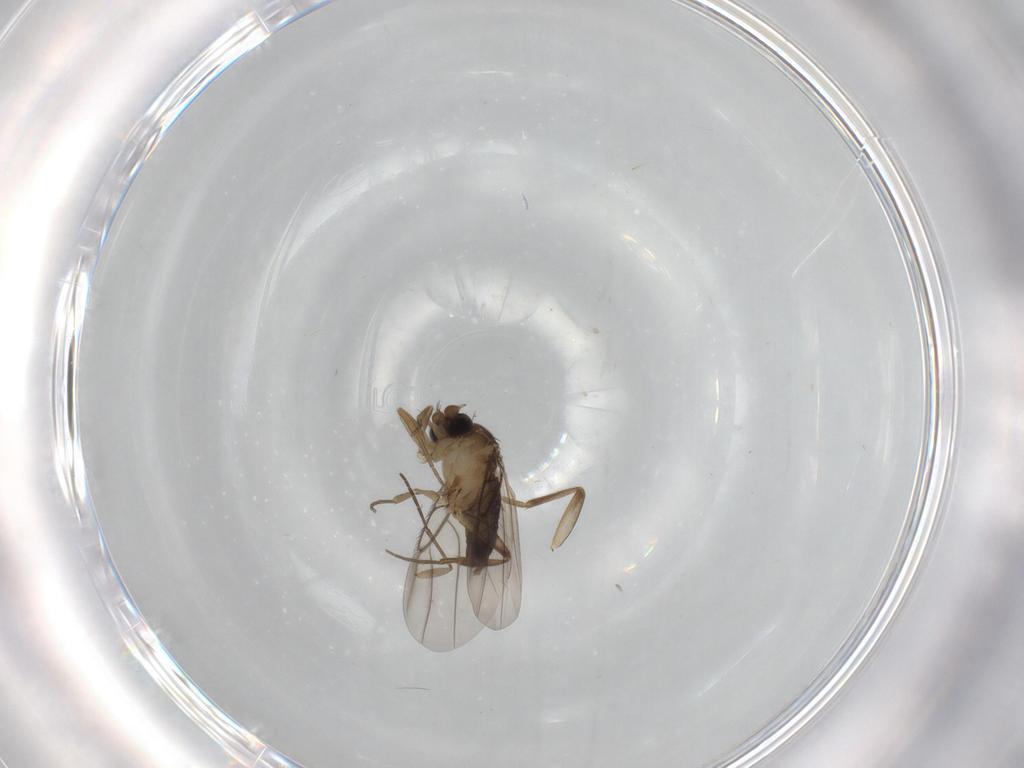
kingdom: Animalia
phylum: Arthropoda
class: Insecta
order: Diptera
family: Phoridae
